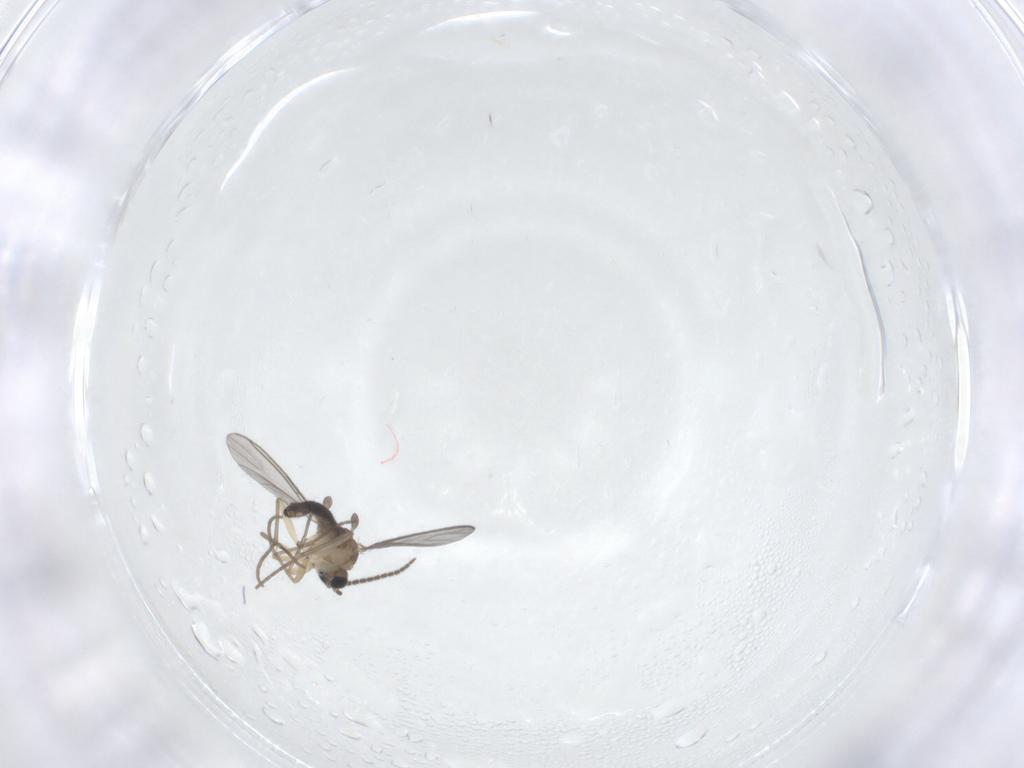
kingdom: Animalia
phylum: Arthropoda
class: Insecta
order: Diptera
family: Sciaridae
